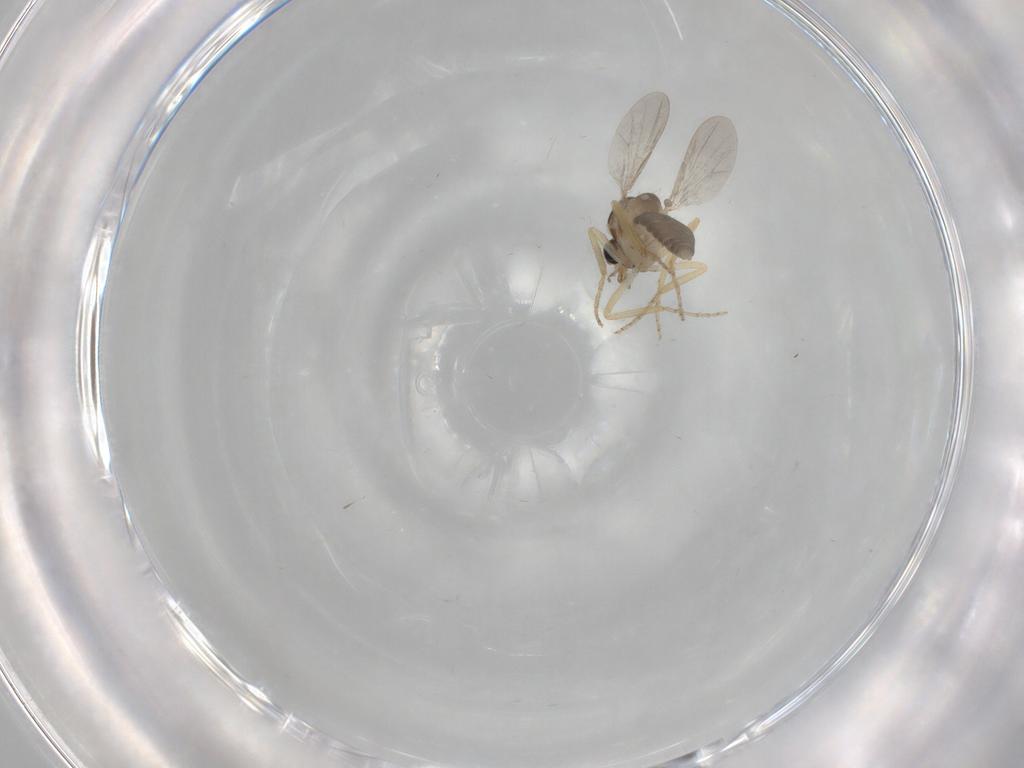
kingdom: Animalia
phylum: Arthropoda
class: Insecta
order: Diptera
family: Ceratopogonidae
